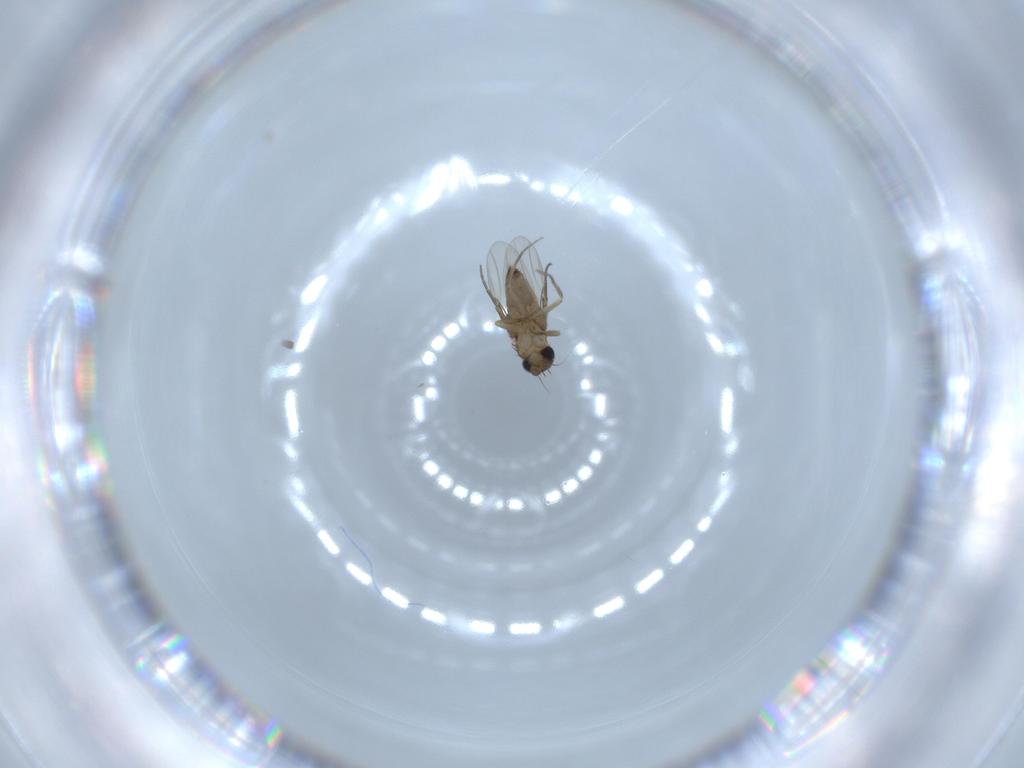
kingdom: Animalia
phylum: Arthropoda
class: Insecta
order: Diptera
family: Phoridae
